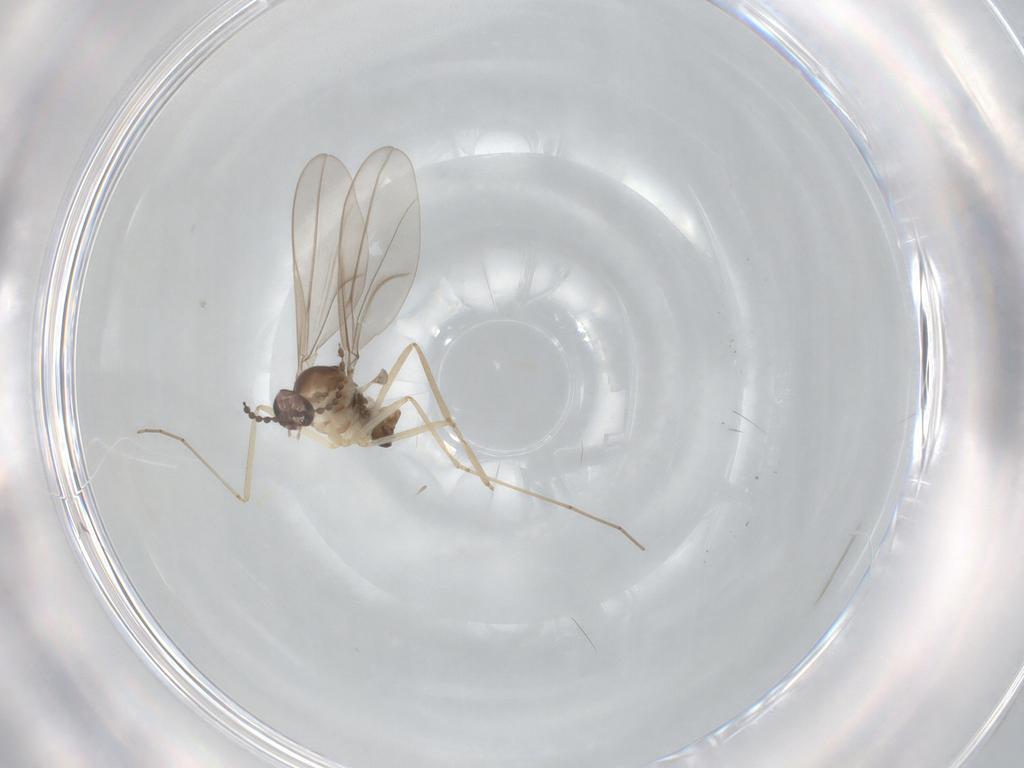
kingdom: Animalia
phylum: Arthropoda
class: Insecta
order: Diptera
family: Cecidomyiidae
